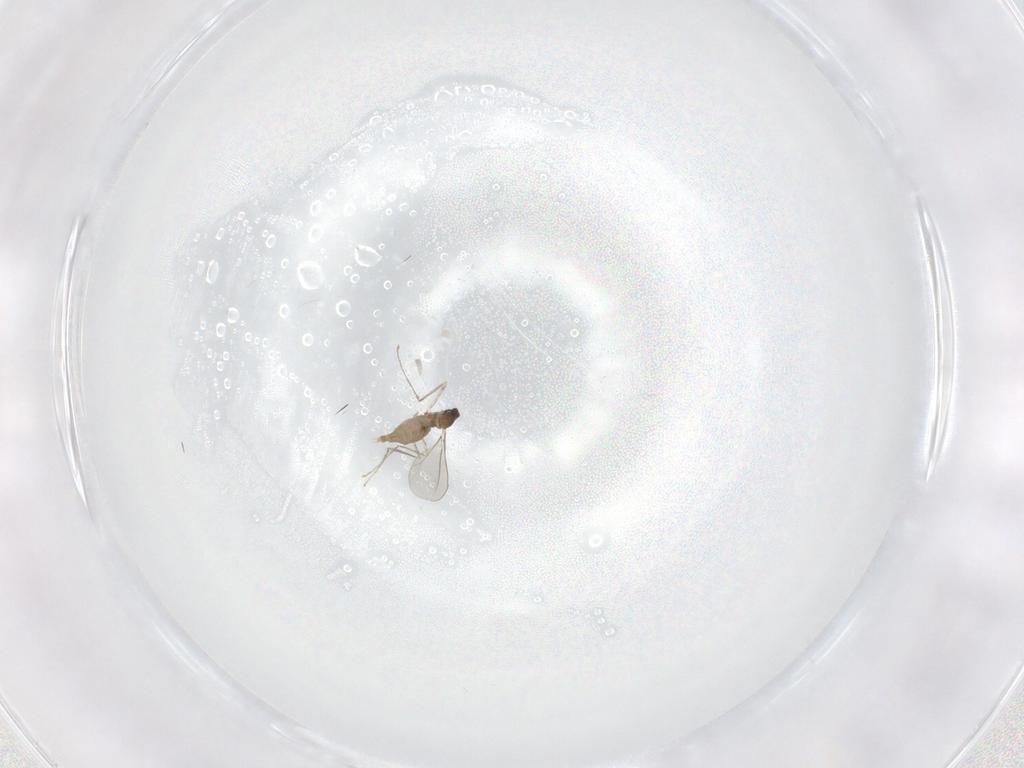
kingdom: Animalia
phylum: Arthropoda
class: Insecta
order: Diptera
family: Cecidomyiidae
